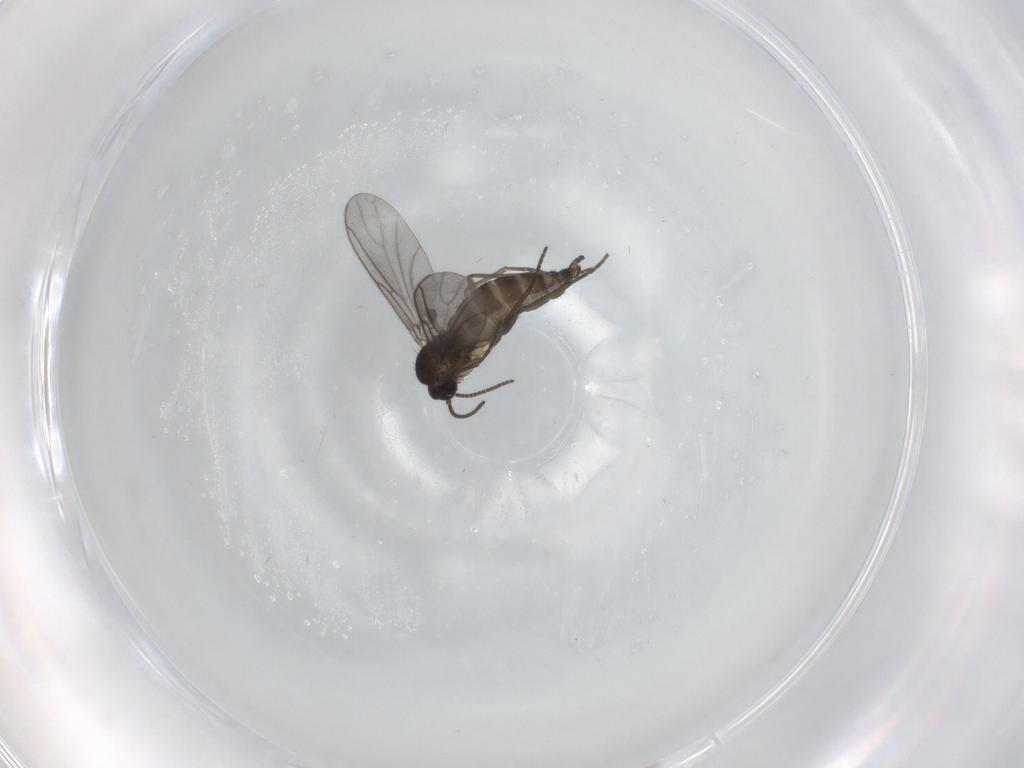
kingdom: Animalia
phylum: Arthropoda
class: Insecta
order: Diptera
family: Sciaridae
